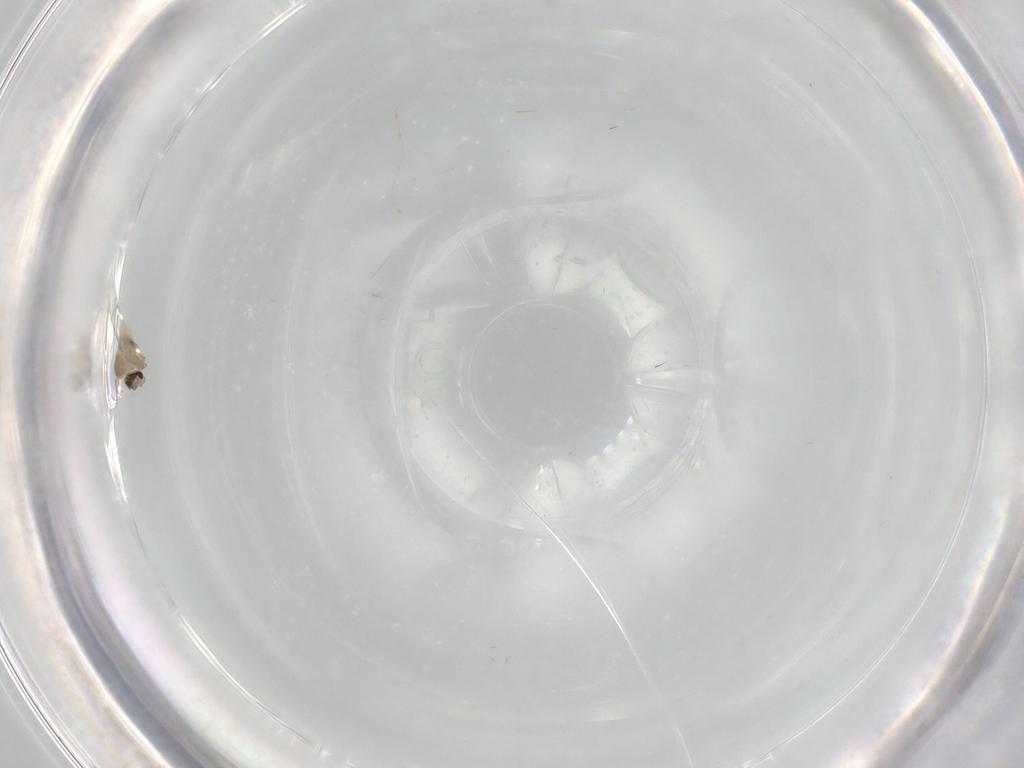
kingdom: Animalia
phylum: Arthropoda
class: Insecta
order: Diptera
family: Cecidomyiidae
